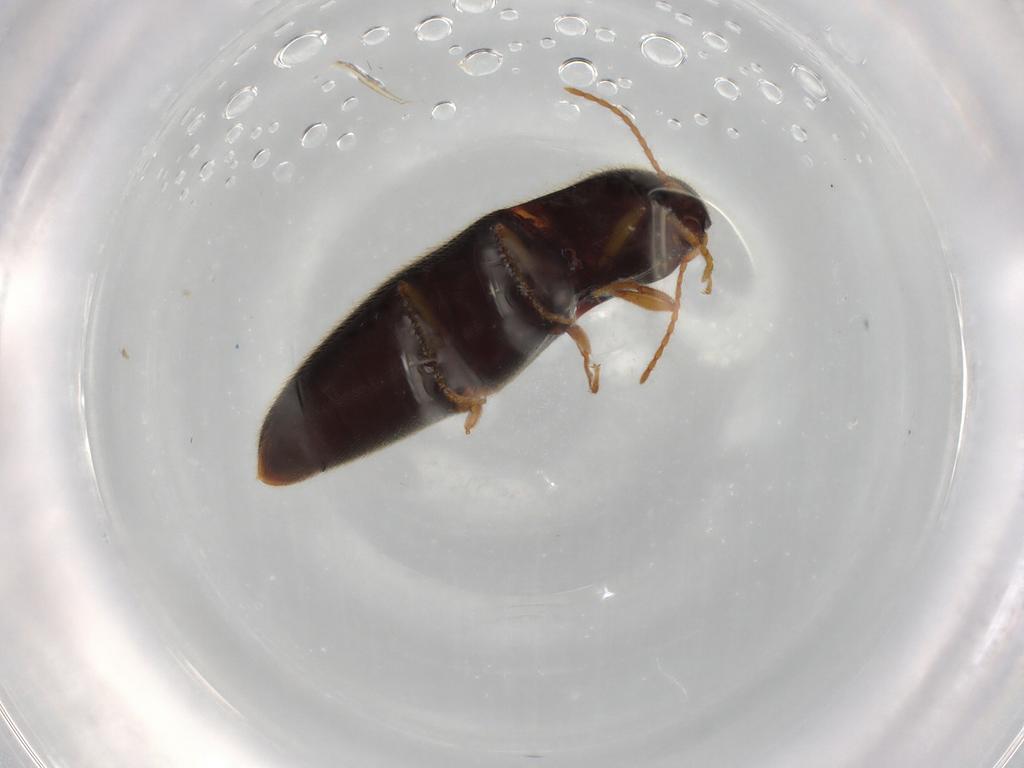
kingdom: Animalia
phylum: Arthropoda
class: Insecta
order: Coleoptera
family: Elateridae
